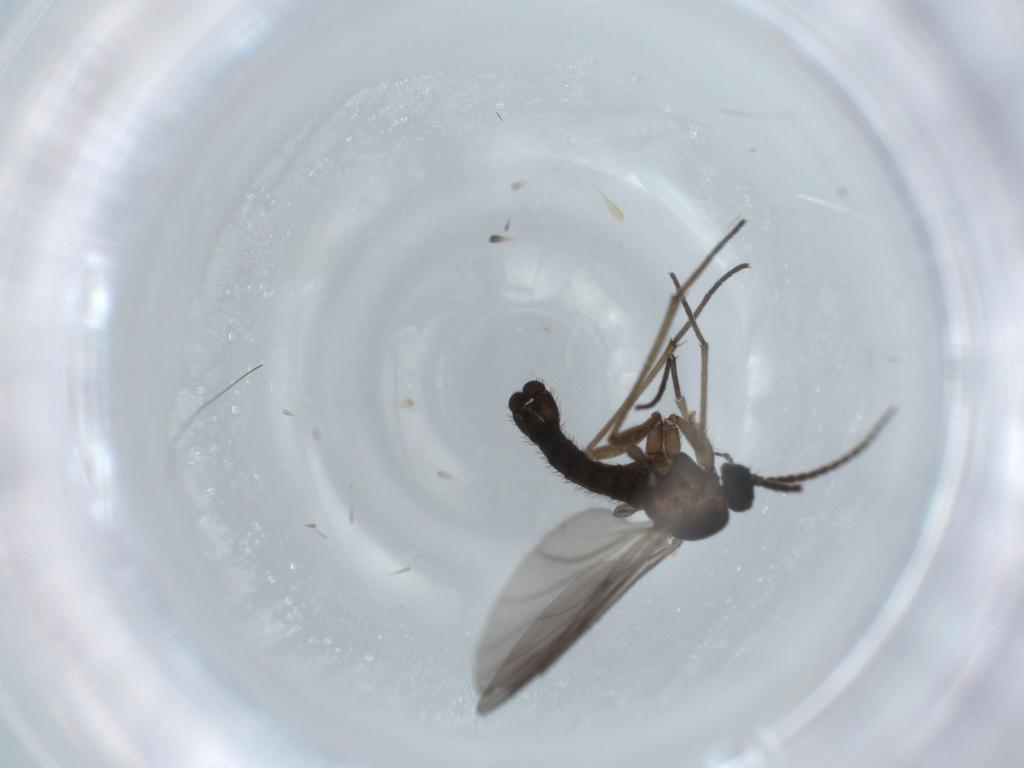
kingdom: Animalia
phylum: Arthropoda
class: Insecta
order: Diptera
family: Sciaridae
